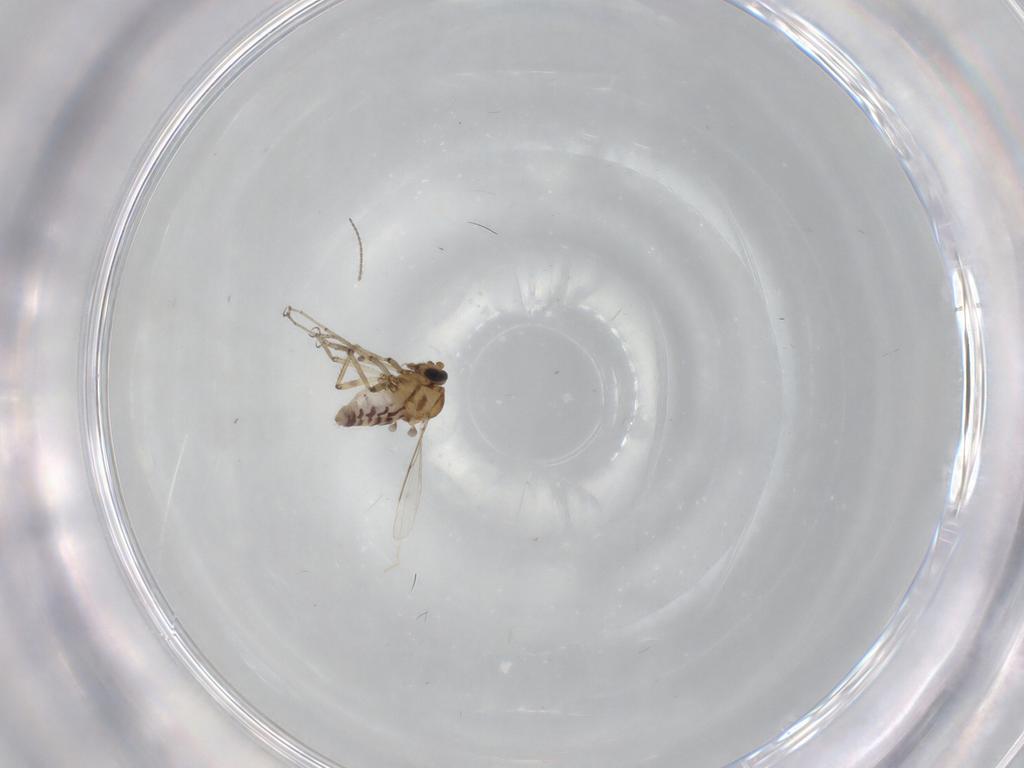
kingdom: Animalia
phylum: Arthropoda
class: Insecta
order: Diptera
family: Ceratopogonidae
